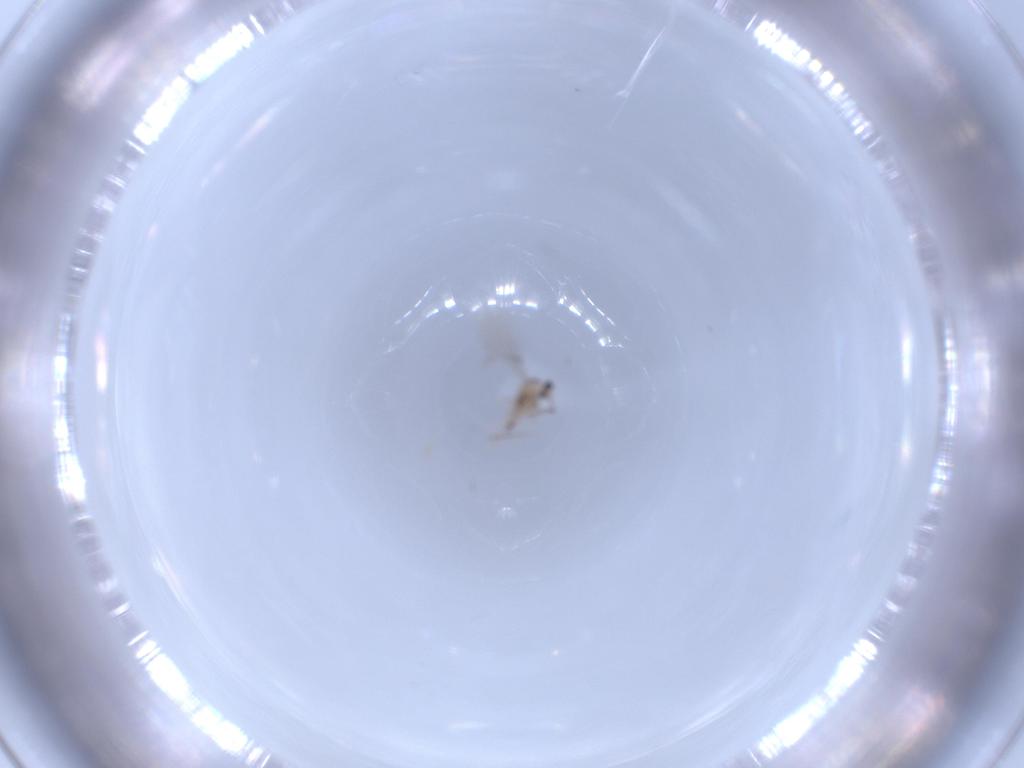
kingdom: Animalia
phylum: Arthropoda
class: Insecta
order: Diptera
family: Cecidomyiidae
